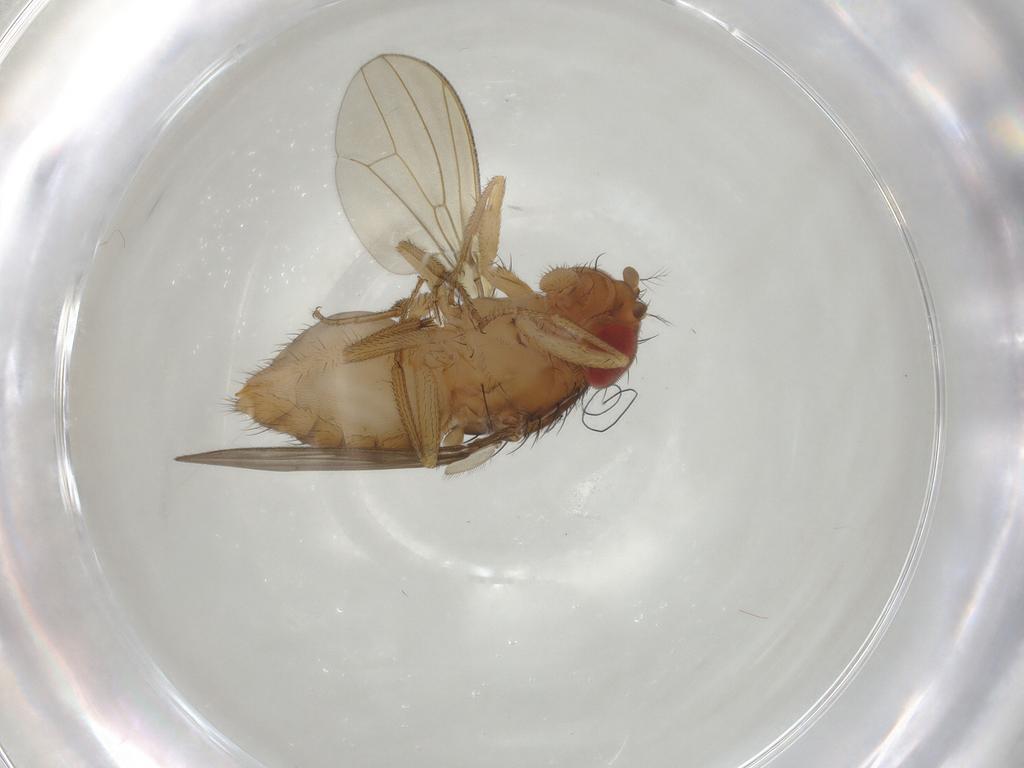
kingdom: Animalia
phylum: Arthropoda
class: Insecta
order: Diptera
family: Drosophilidae
